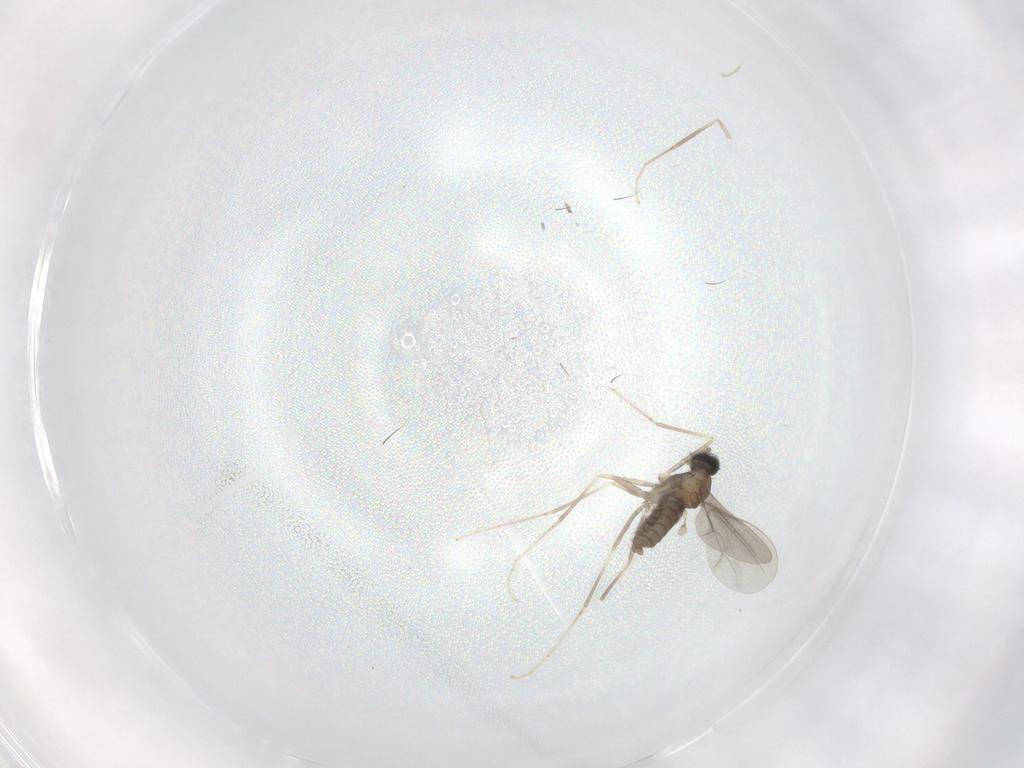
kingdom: Animalia
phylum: Arthropoda
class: Insecta
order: Diptera
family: Cecidomyiidae
